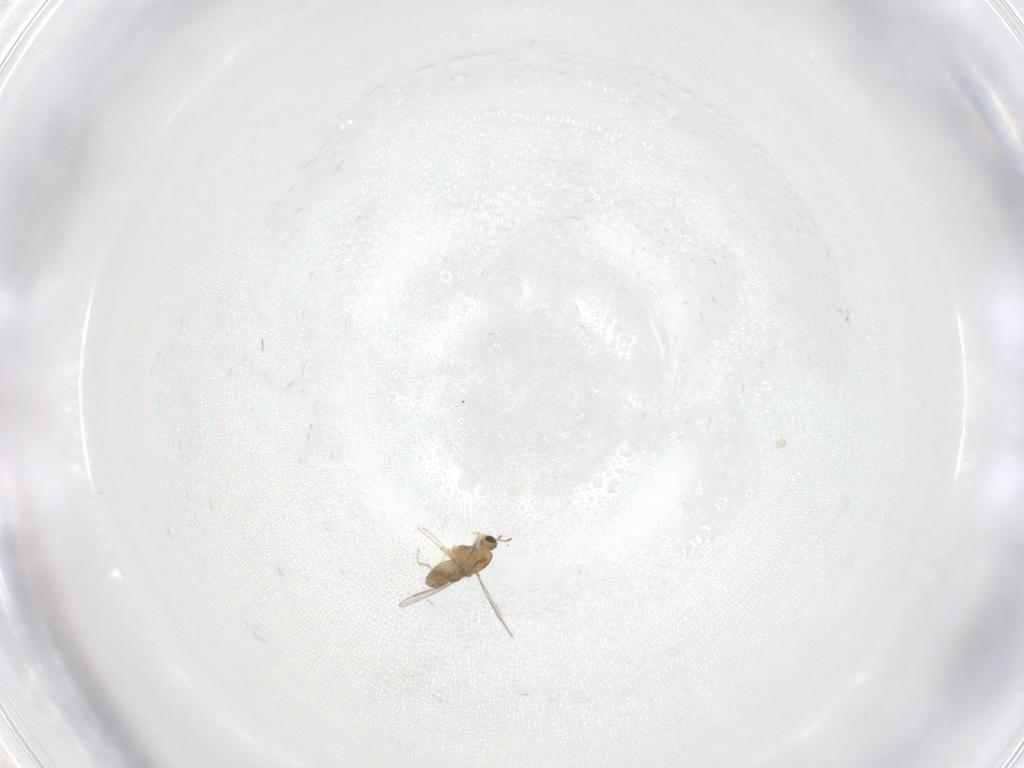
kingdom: Animalia
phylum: Arthropoda
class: Insecta
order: Diptera
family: Chironomidae
